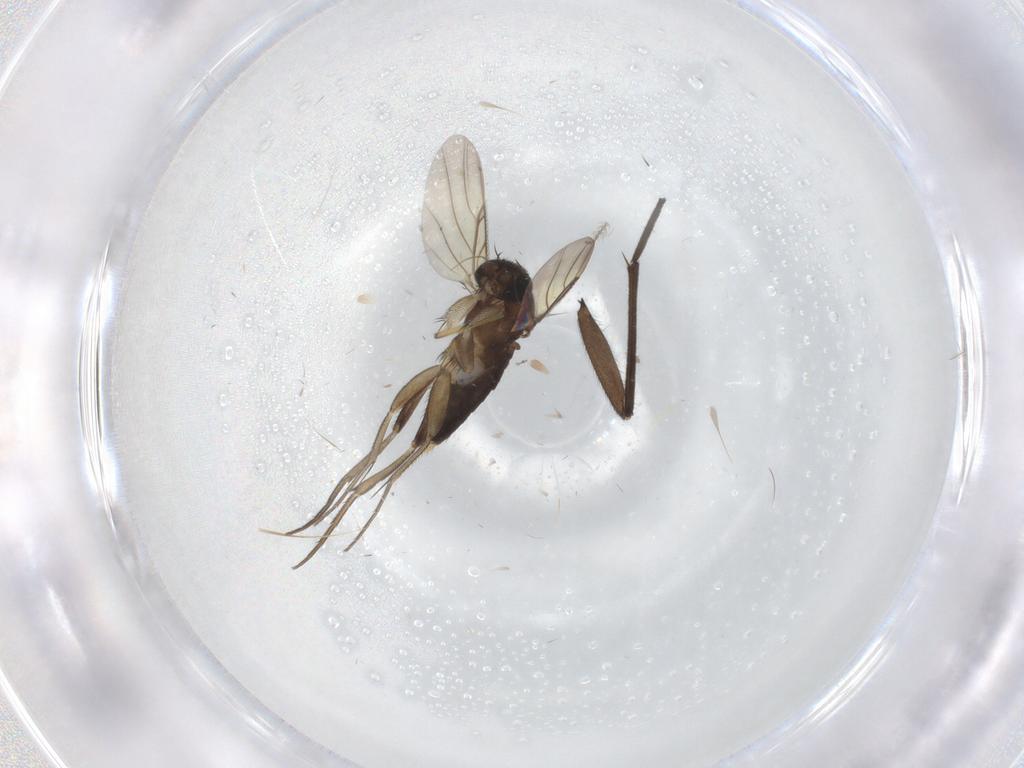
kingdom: Animalia
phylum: Arthropoda
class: Insecta
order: Diptera
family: Phoridae
